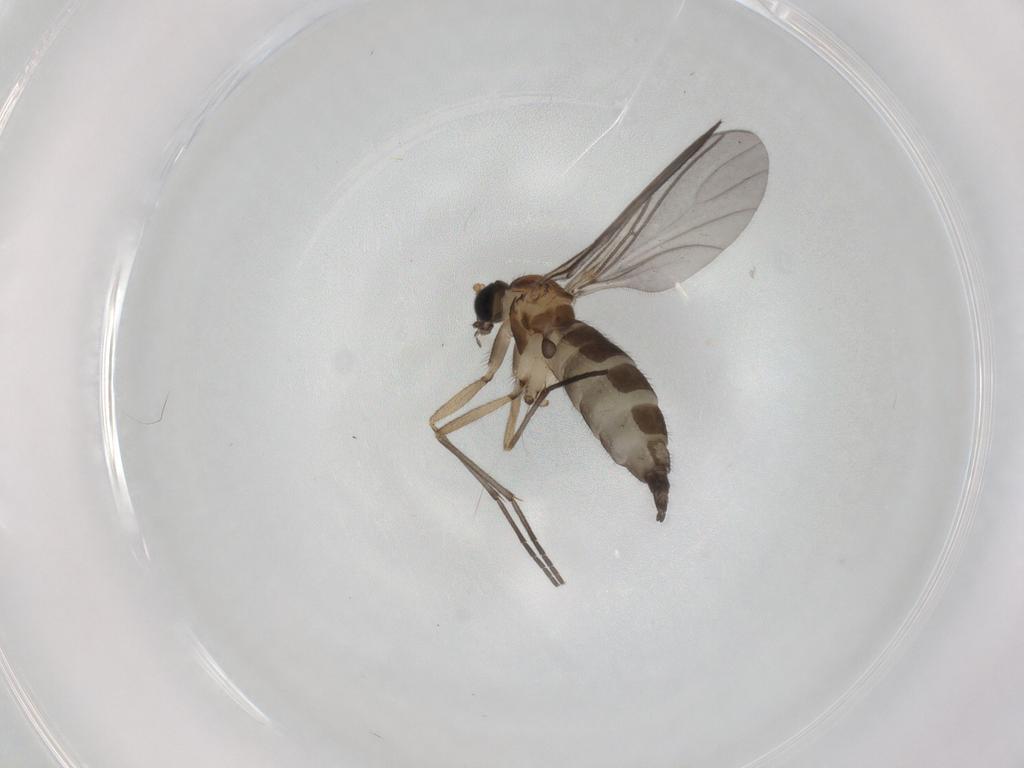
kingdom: Animalia
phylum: Arthropoda
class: Insecta
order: Diptera
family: Sciaridae
